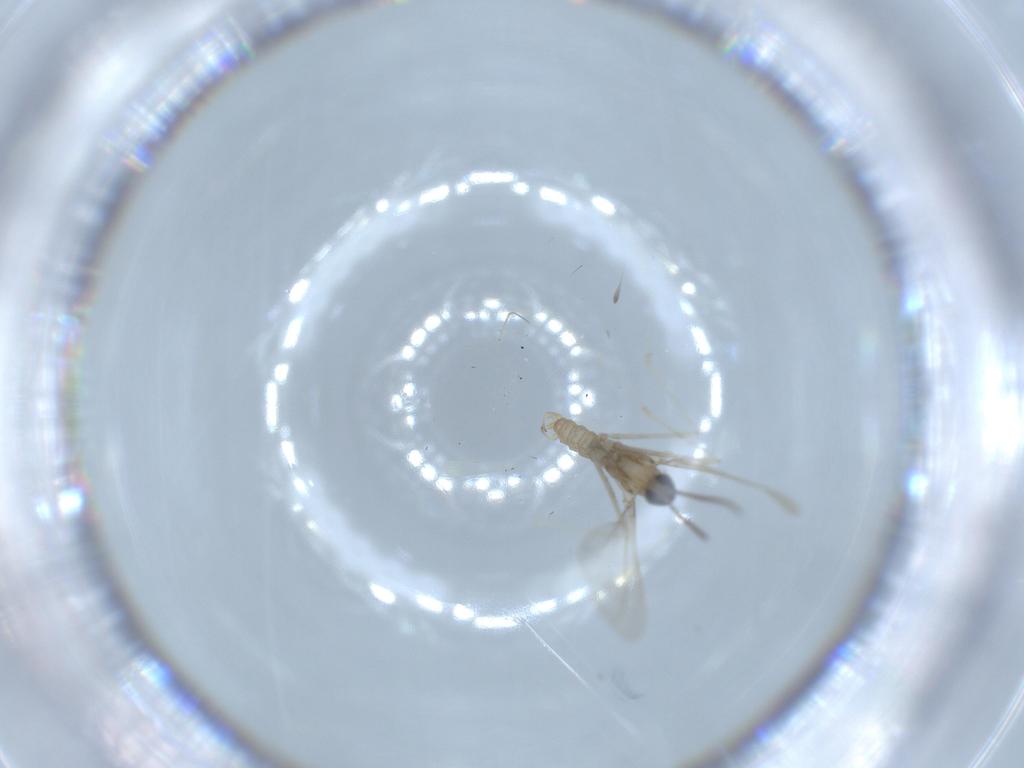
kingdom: Animalia
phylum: Arthropoda
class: Insecta
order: Diptera
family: Cecidomyiidae
